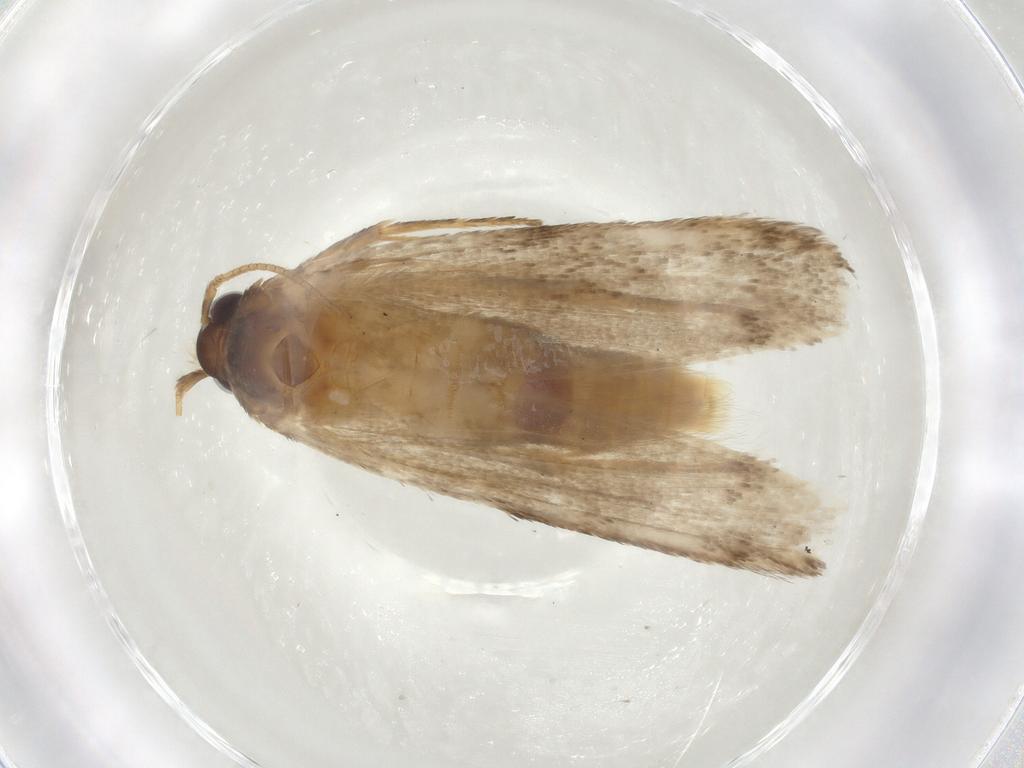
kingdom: Animalia
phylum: Arthropoda
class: Insecta
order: Lepidoptera
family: Coleophoridae
